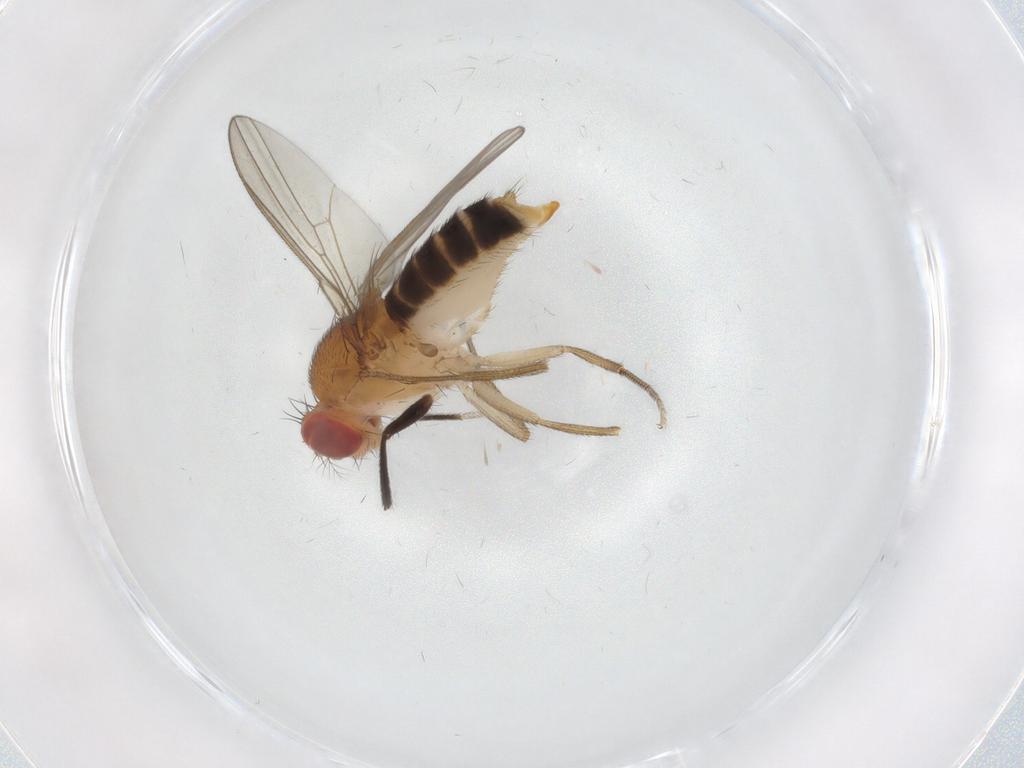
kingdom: Animalia
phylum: Arthropoda
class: Insecta
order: Diptera
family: Drosophilidae
